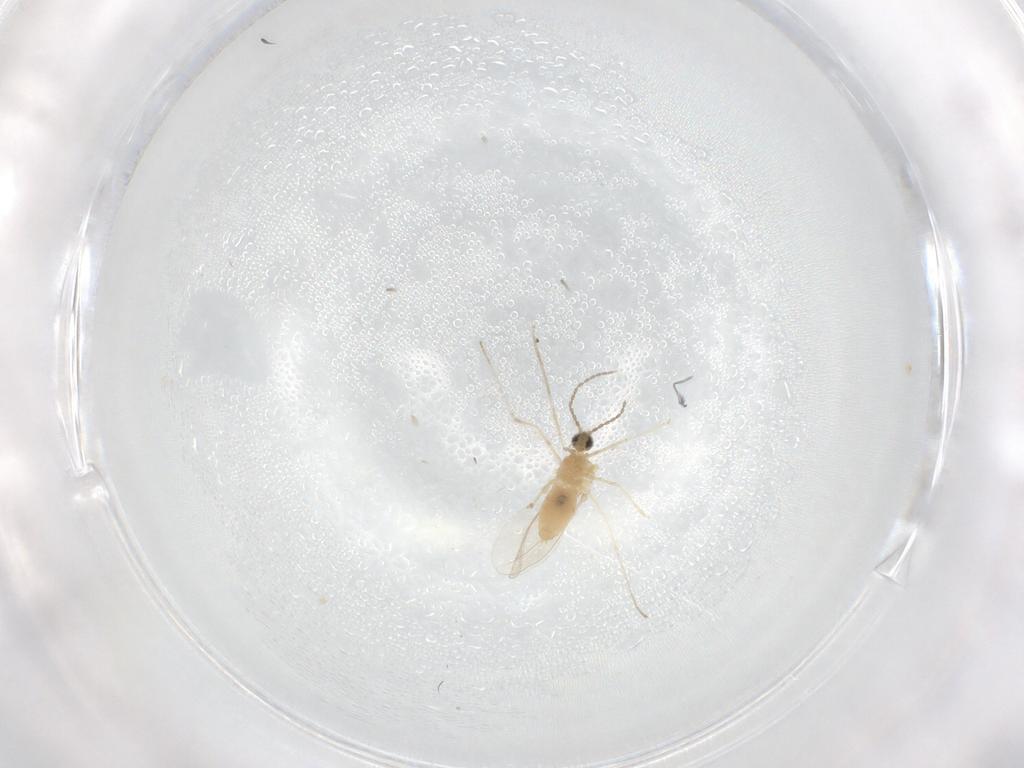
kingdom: Animalia
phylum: Arthropoda
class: Insecta
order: Diptera
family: Cecidomyiidae
